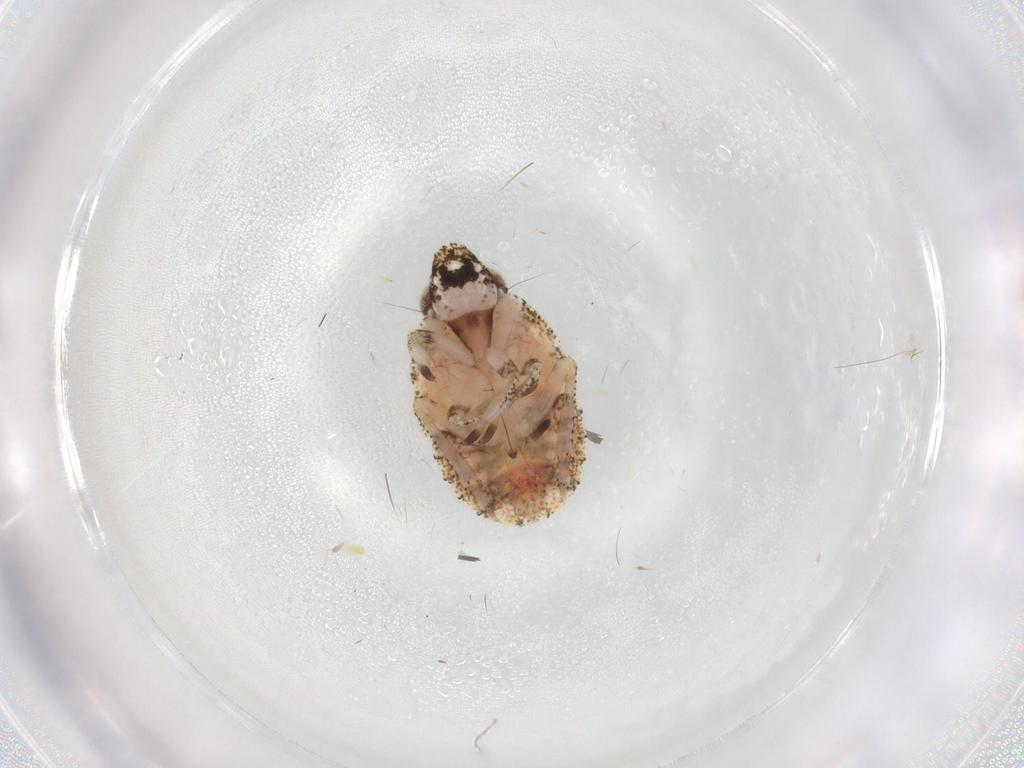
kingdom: Animalia
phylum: Arthropoda
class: Insecta
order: Hemiptera
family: Gengidae
